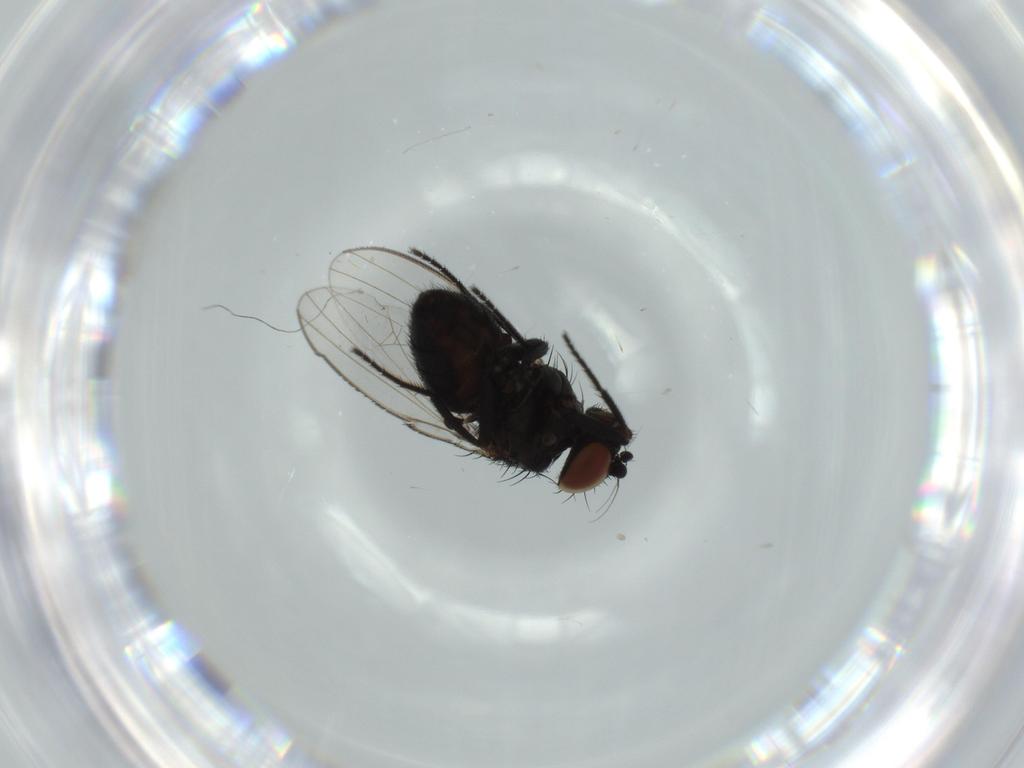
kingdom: Animalia
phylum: Arthropoda
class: Insecta
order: Diptera
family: Milichiidae
